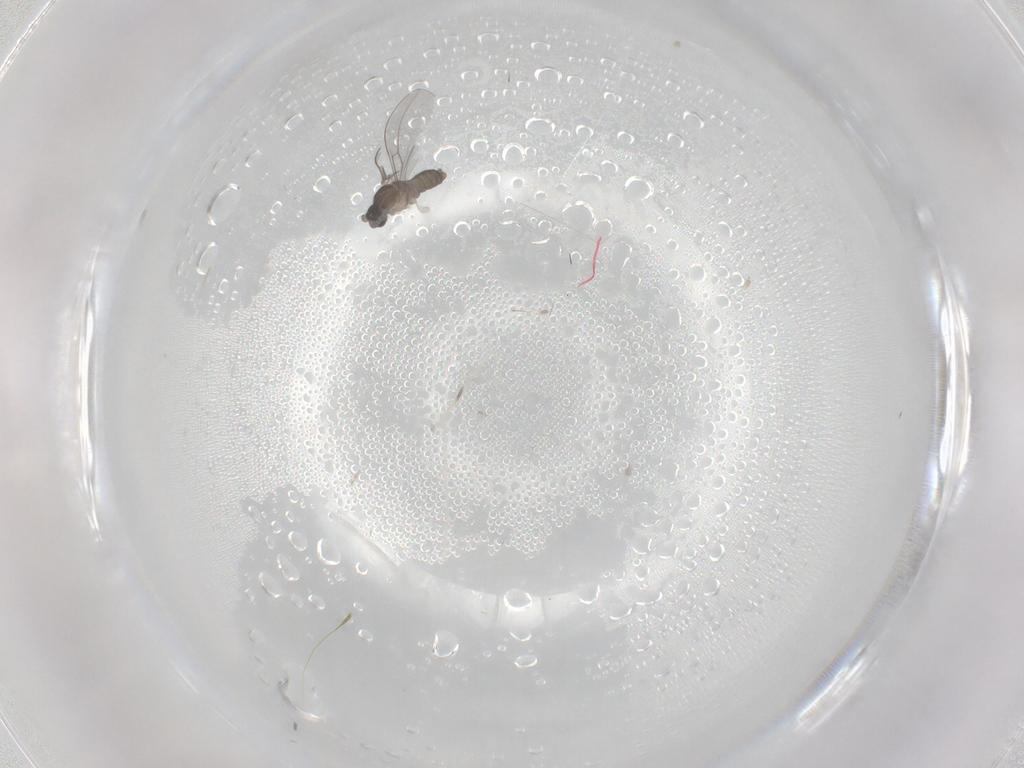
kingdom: Animalia
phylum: Arthropoda
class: Insecta
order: Diptera
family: Cecidomyiidae
